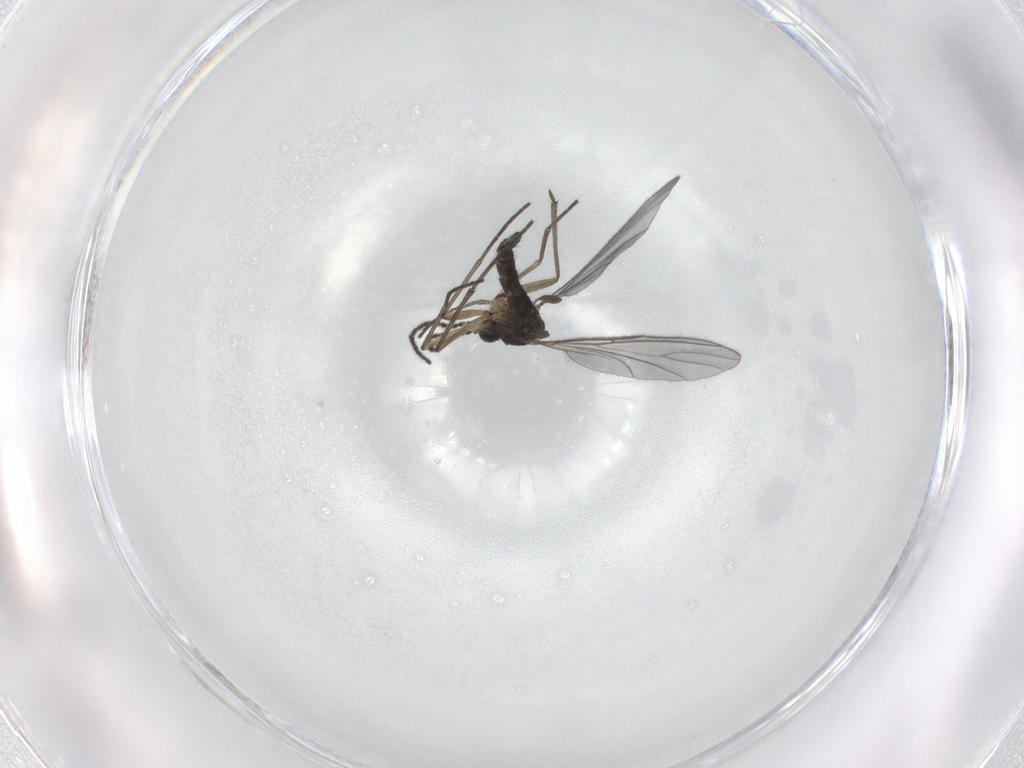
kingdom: Animalia
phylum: Arthropoda
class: Insecta
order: Diptera
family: Sciaridae
